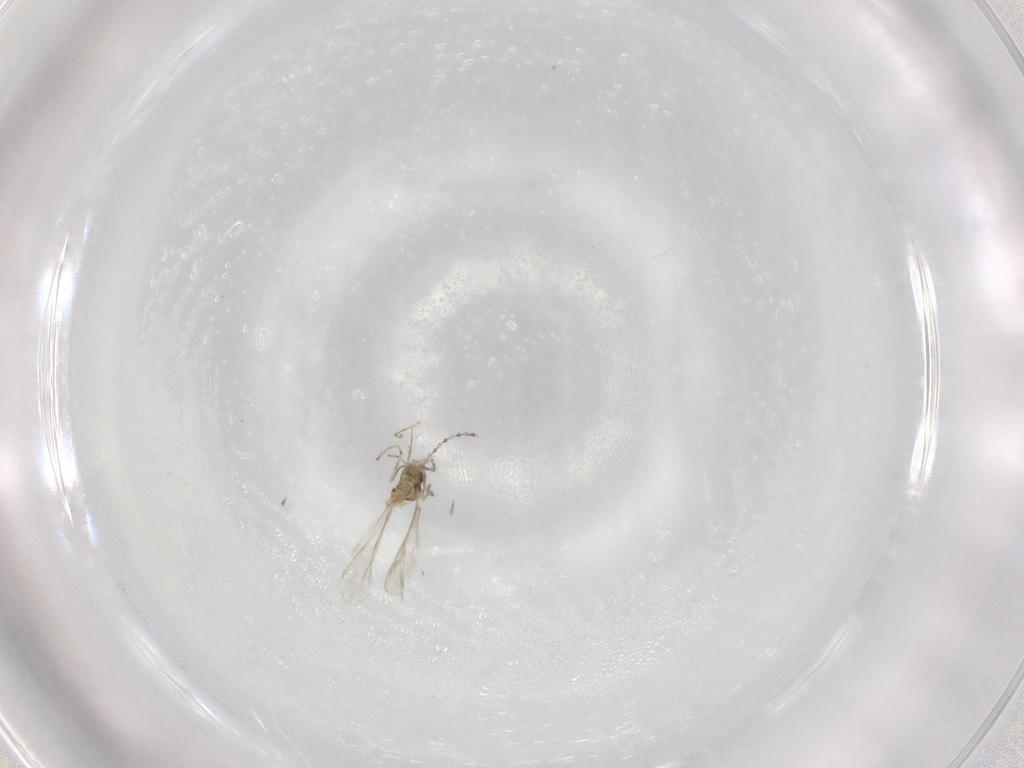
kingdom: Animalia
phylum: Arthropoda
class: Insecta
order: Diptera
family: Cecidomyiidae
